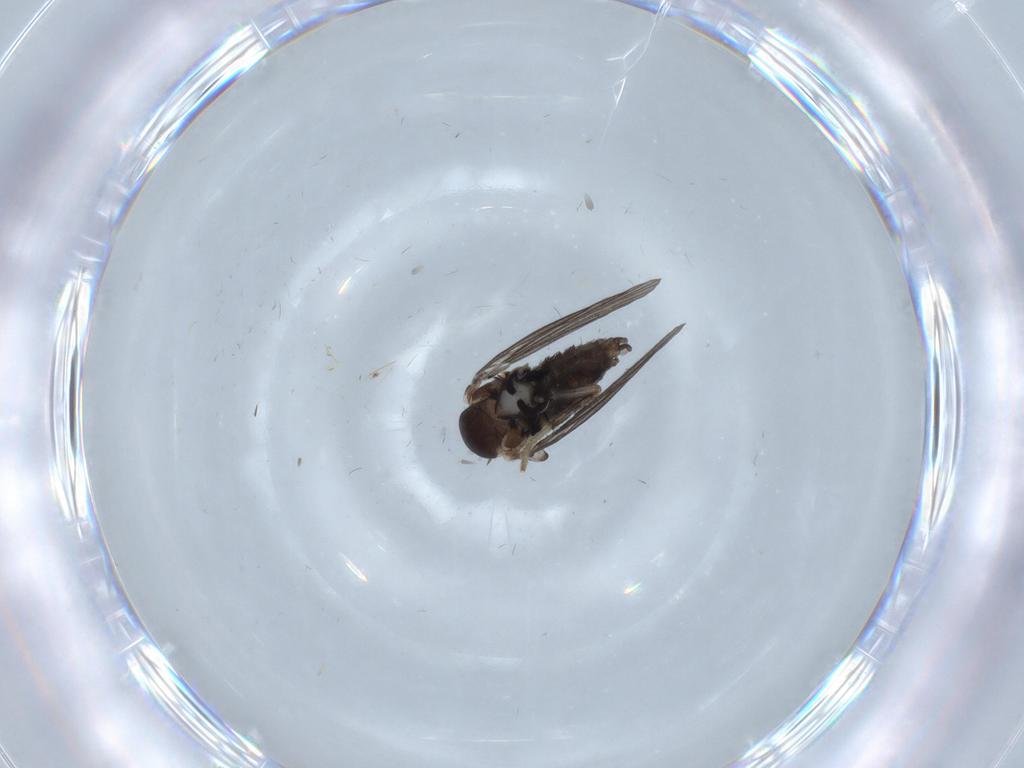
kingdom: Animalia
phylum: Arthropoda
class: Insecta
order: Diptera
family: Psychodidae
